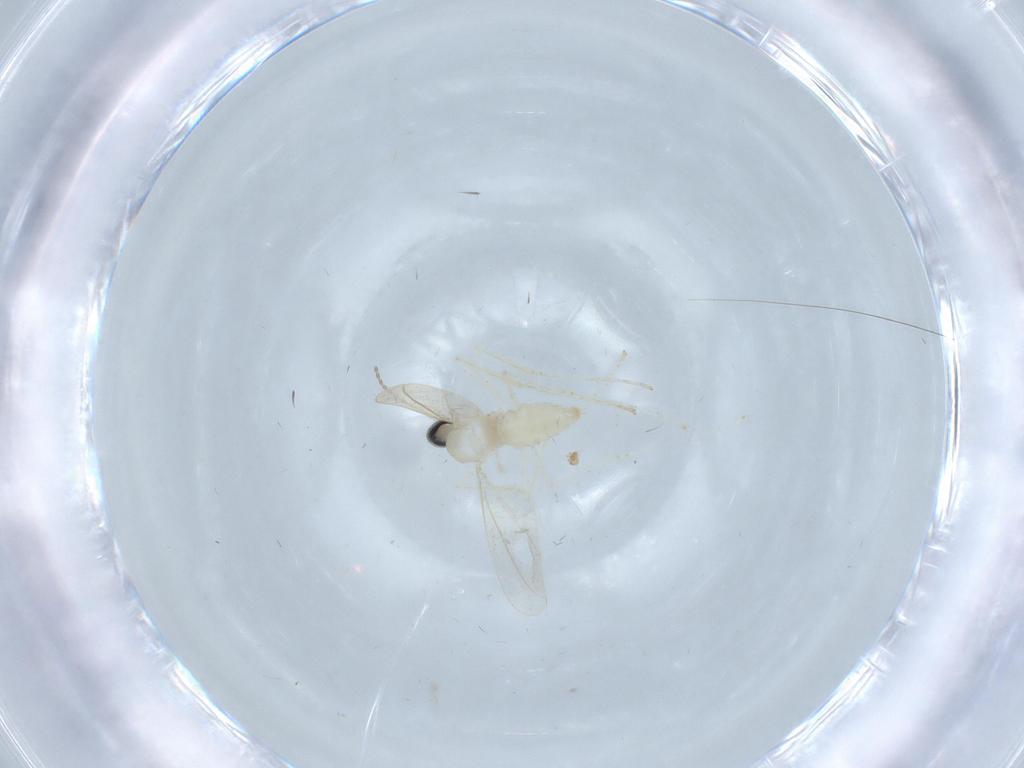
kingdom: Animalia
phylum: Arthropoda
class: Insecta
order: Diptera
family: Cecidomyiidae
